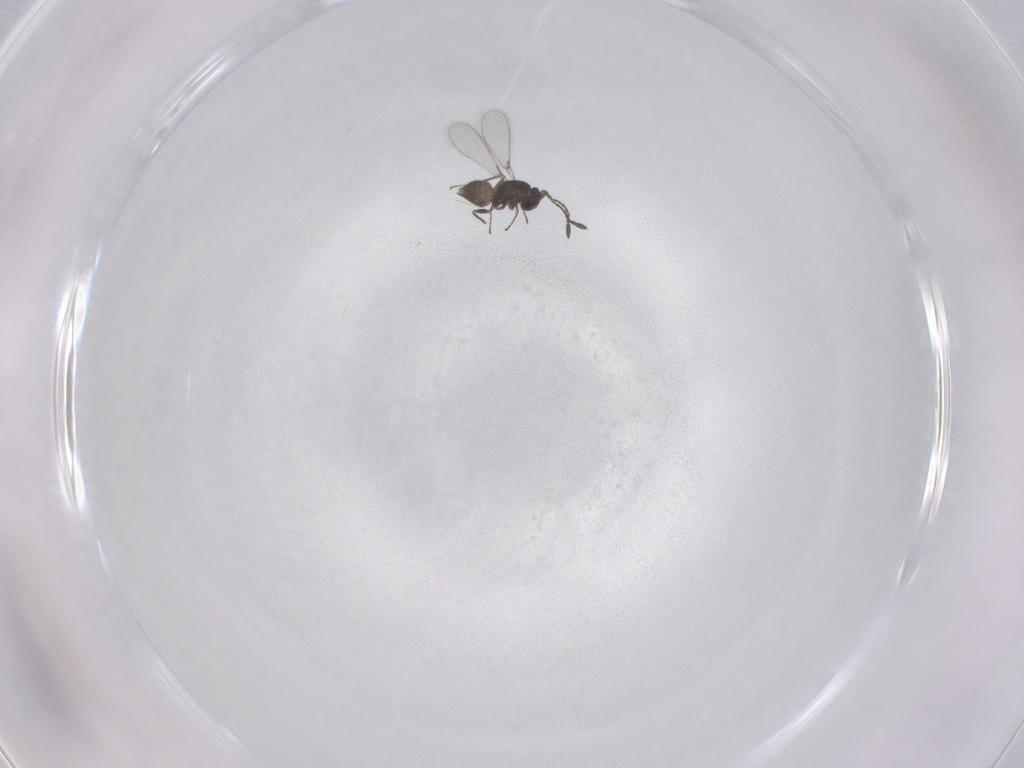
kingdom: Animalia
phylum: Arthropoda
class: Insecta
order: Hymenoptera
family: Mymaridae
